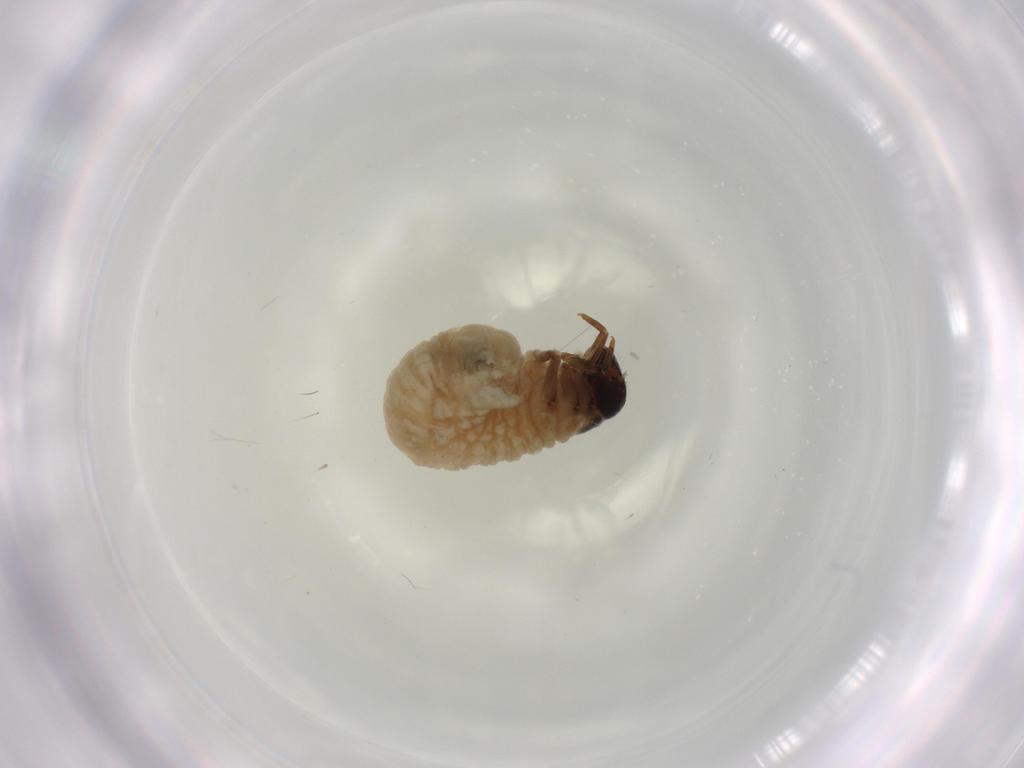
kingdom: Animalia
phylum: Arthropoda
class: Insecta
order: Coleoptera
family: Chrysomelidae
